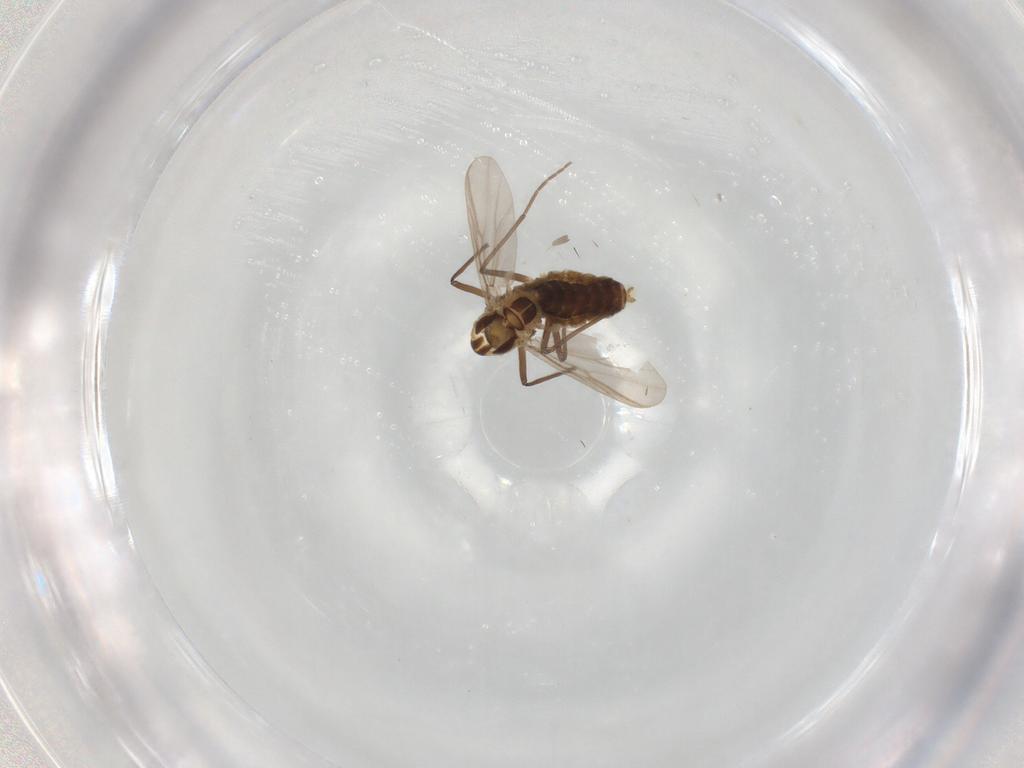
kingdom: Animalia
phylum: Arthropoda
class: Insecta
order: Diptera
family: Chironomidae
